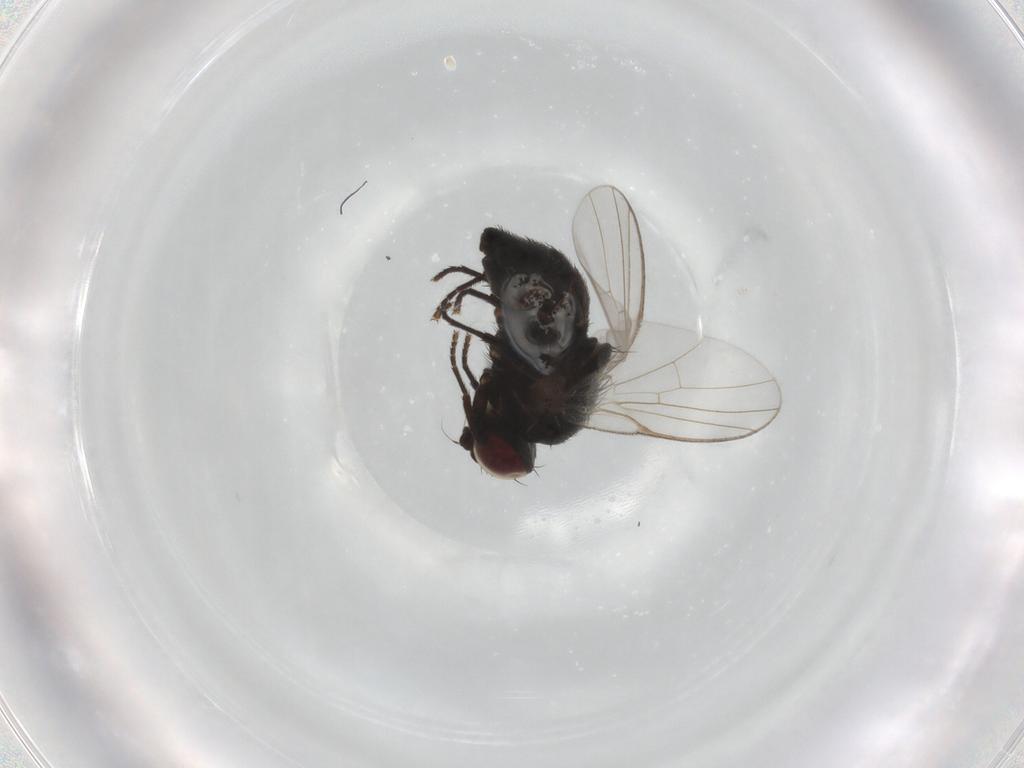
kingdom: Animalia
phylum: Arthropoda
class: Insecta
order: Diptera
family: Agromyzidae
